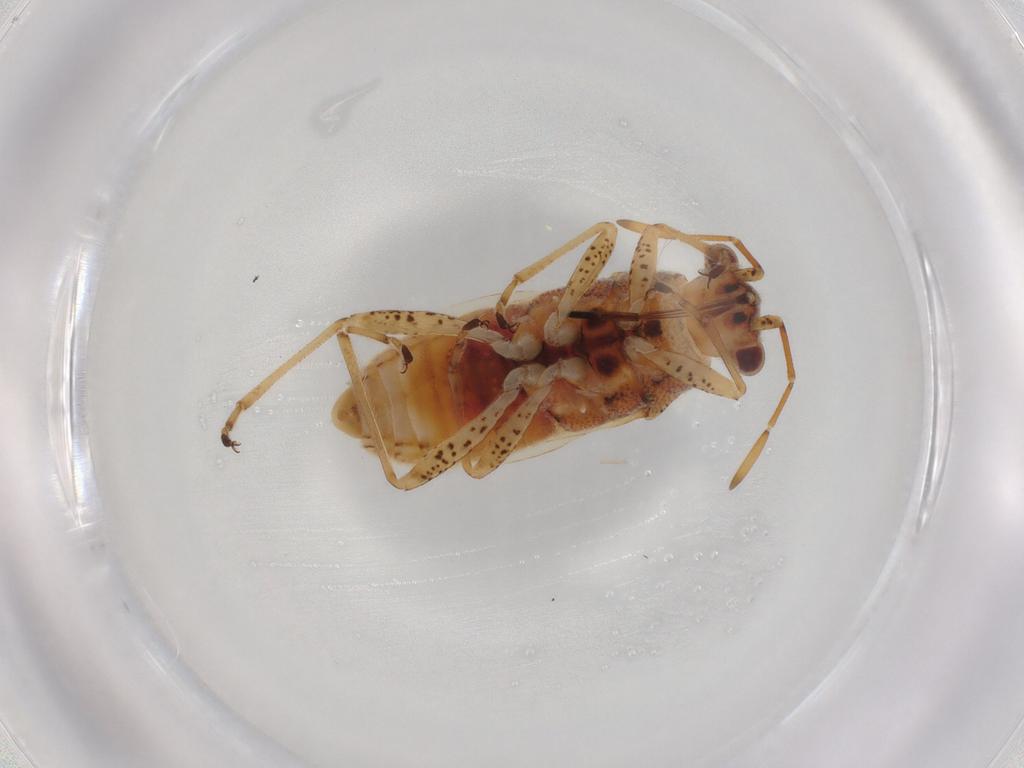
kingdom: Animalia
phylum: Arthropoda
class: Insecta
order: Hemiptera
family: Lygaeidae
